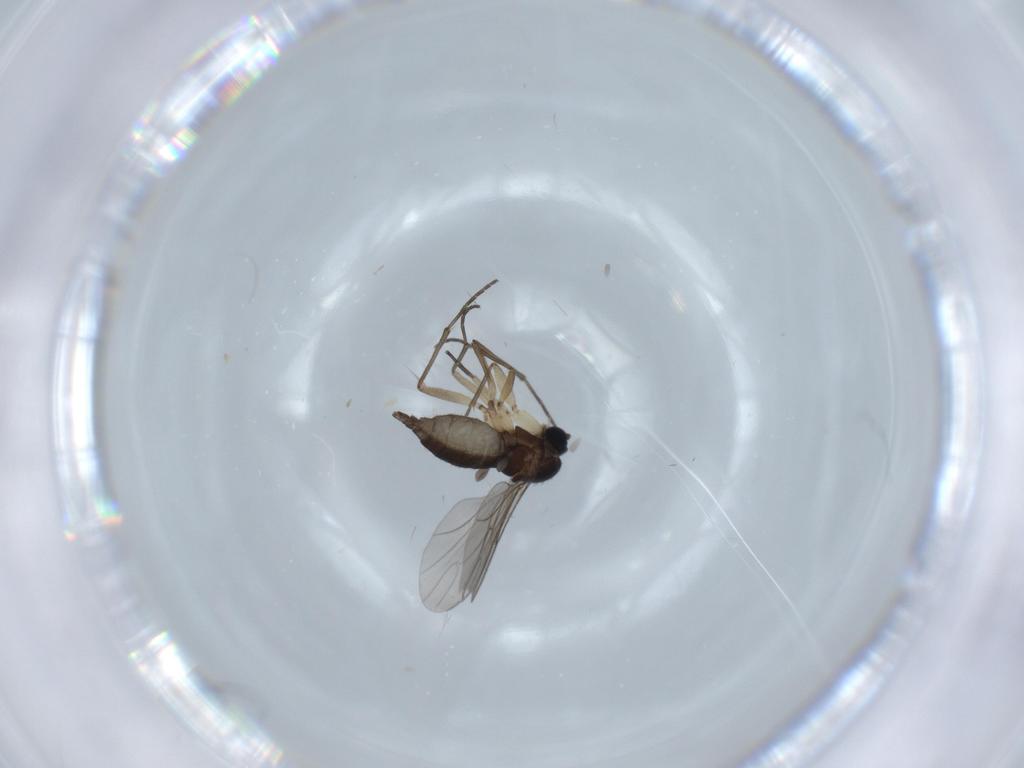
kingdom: Animalia
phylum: Arthropoda
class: Insecta
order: Diptera
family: Sciaridae
